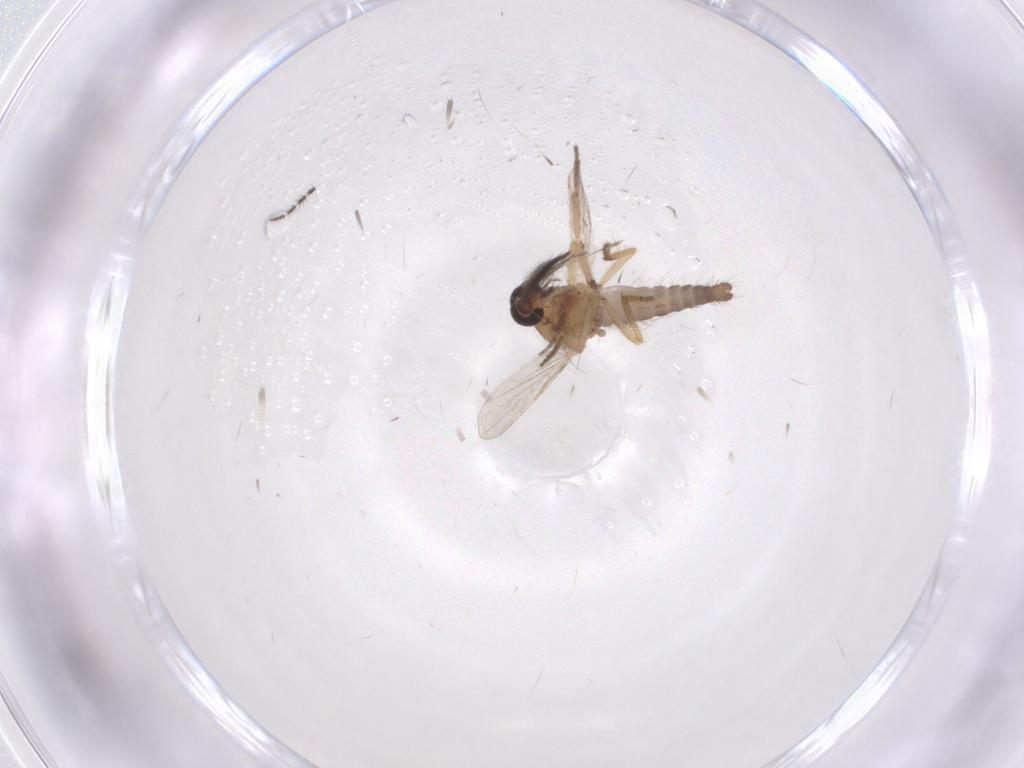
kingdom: Animalia
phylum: Arthropoda
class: Insecta
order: Diptera
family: Ceratopogonidae
